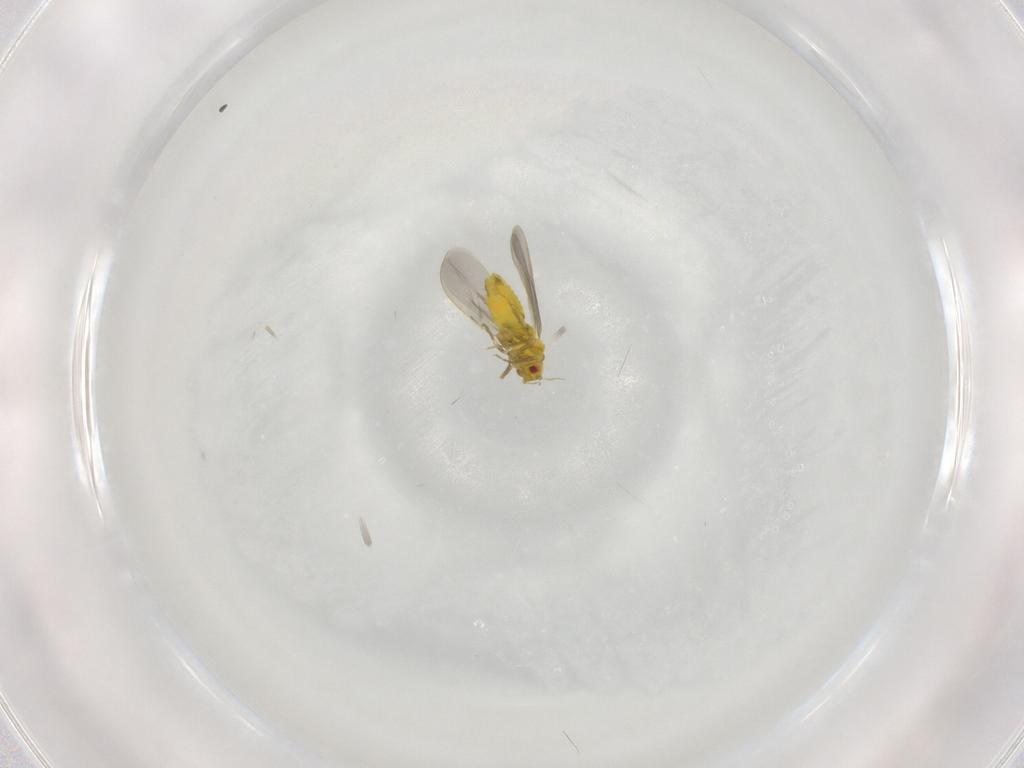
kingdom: Animalia
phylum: Arthropoda
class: Insecta
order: Hemiptera
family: Aleyrodidae
